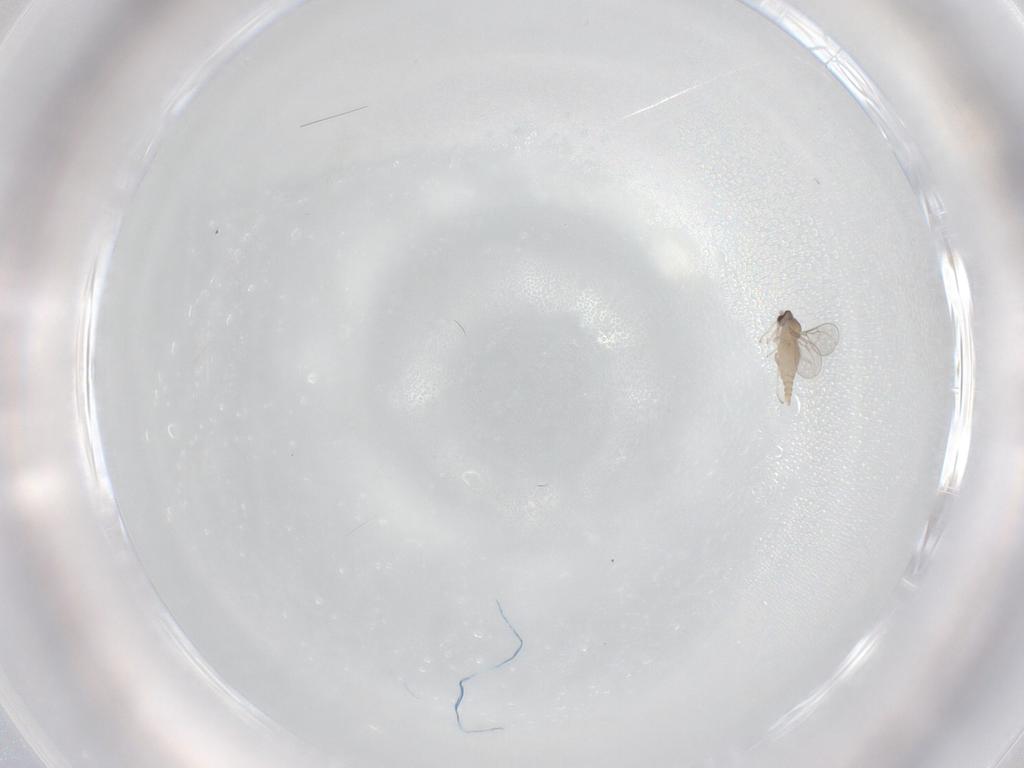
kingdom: Animalia
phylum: Arthropoda
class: Insecta
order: Diptera
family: Cecidomyiidae
